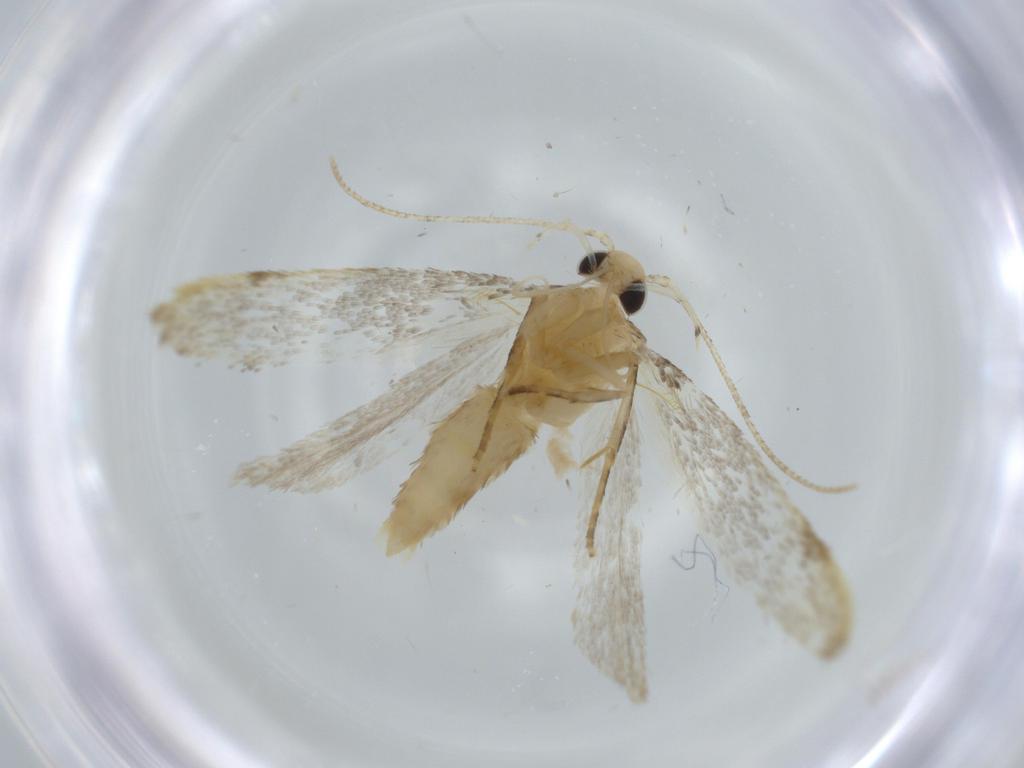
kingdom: Animalia
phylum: Arthropoda
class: Insecta
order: Lepidoptera
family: Autostichidae
